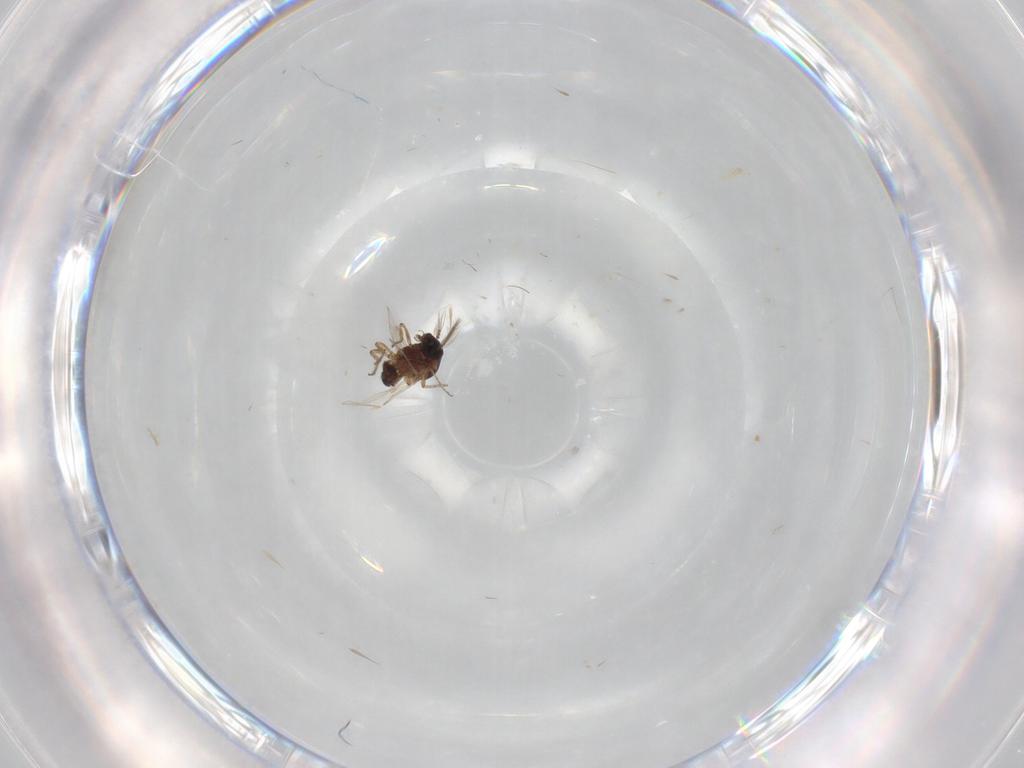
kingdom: Animalia
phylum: Arthropoda
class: Insecta
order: Diptera
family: Ceratopogonidae
